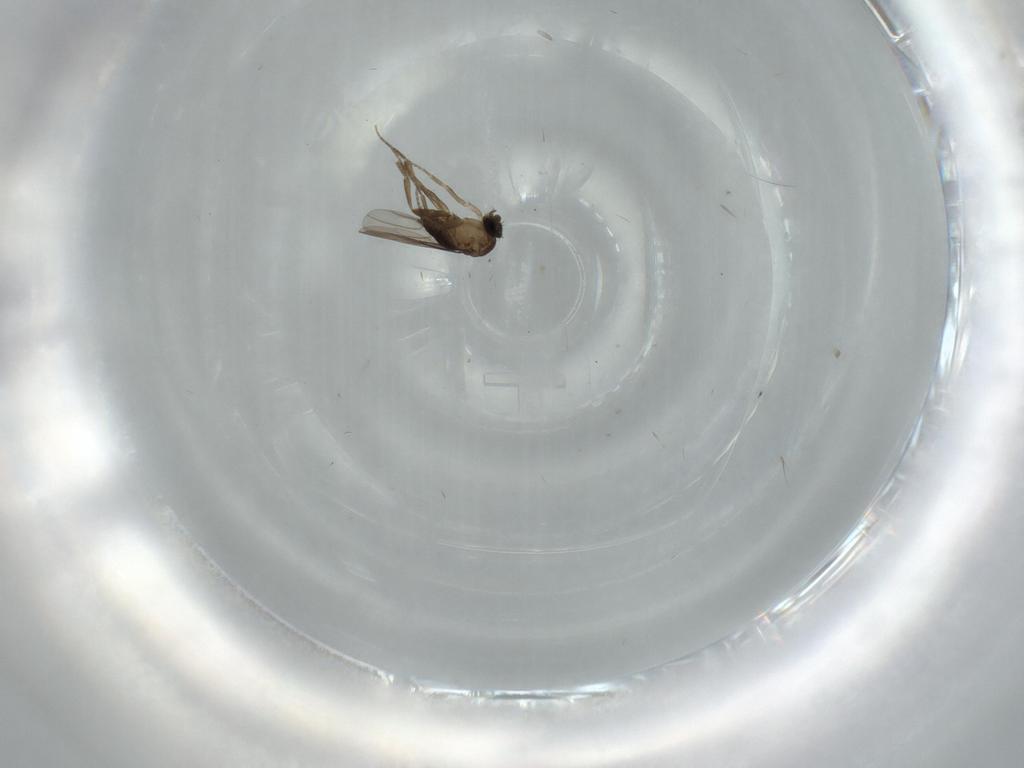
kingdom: Animalia
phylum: Arthropoda
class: Insecta
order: Diptera
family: Phoridae
